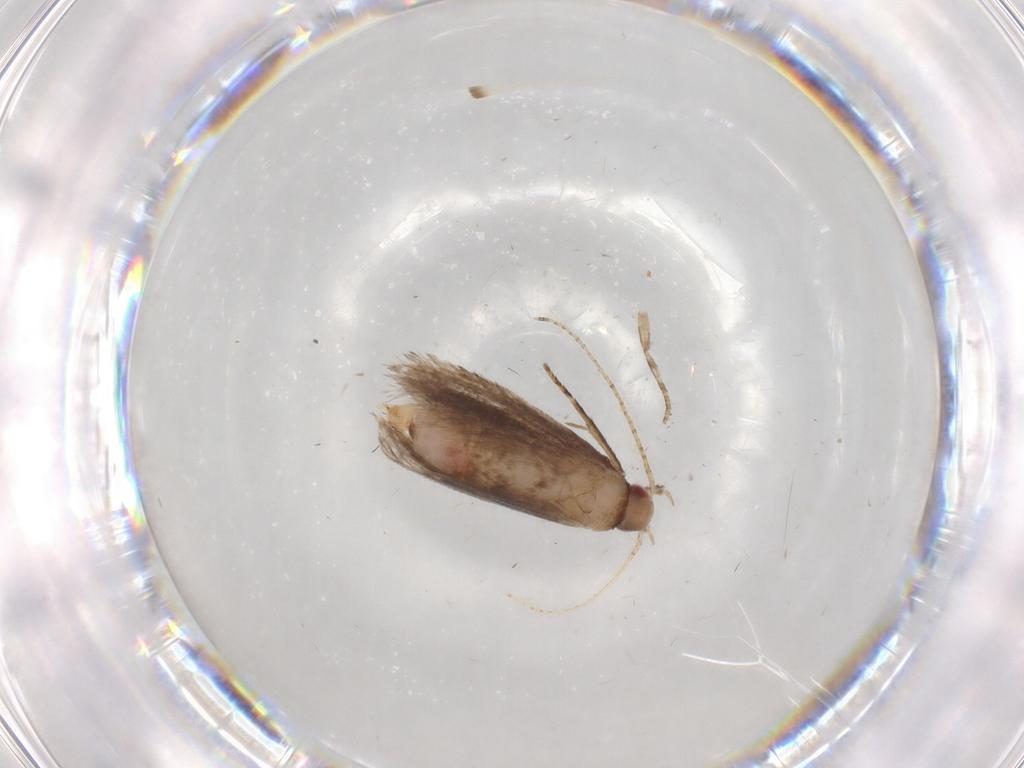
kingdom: Animalia
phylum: Arthropoda
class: Insecta
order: Lepidoptera
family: Gelechiidae
